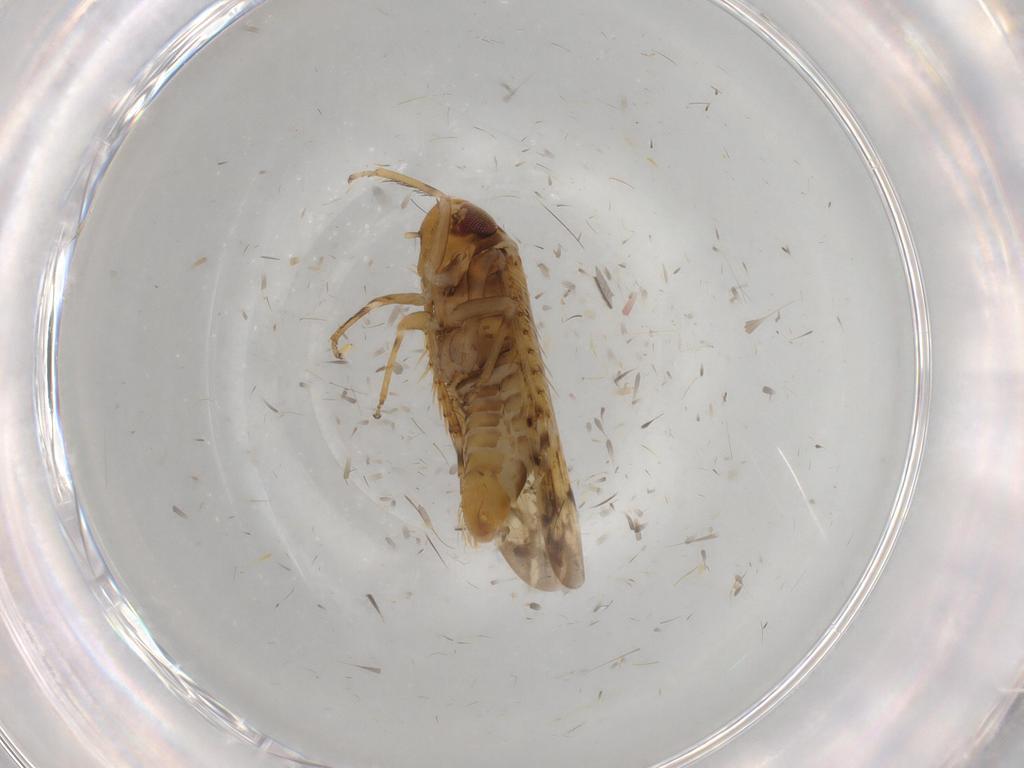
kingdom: Animalia
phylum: Arthropoda
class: Insecta
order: Hemiptera
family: Cicadellidae
